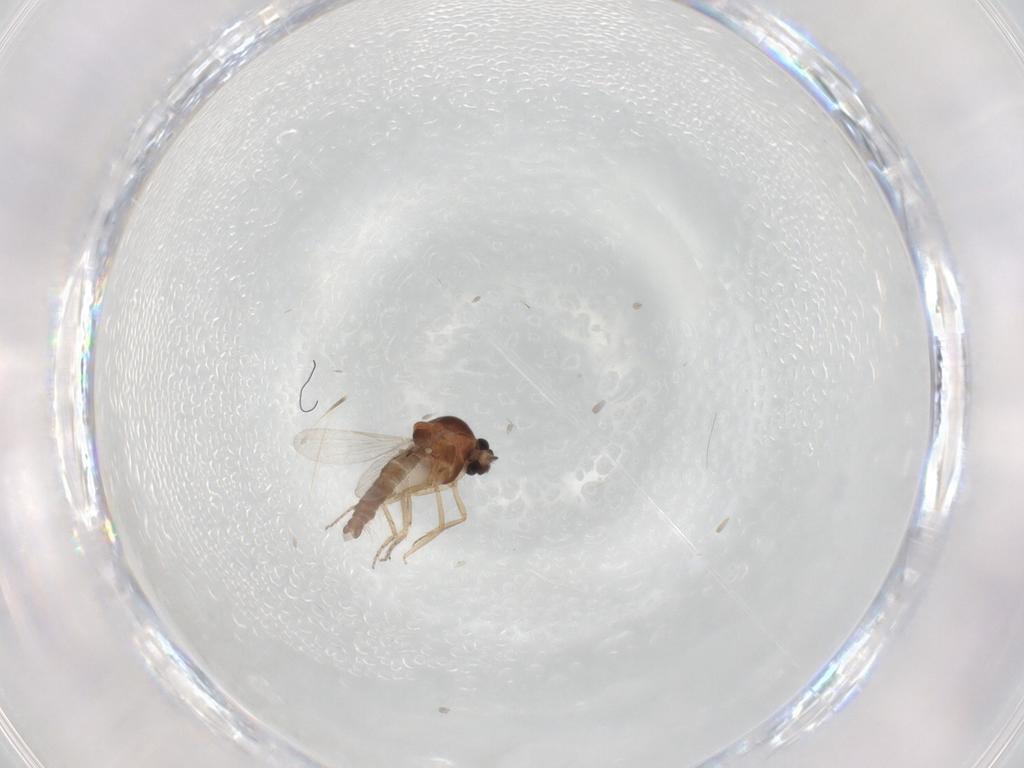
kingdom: Animalia
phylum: Arthropoda
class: Insecta
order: Diptera
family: Ceratopogonidae
